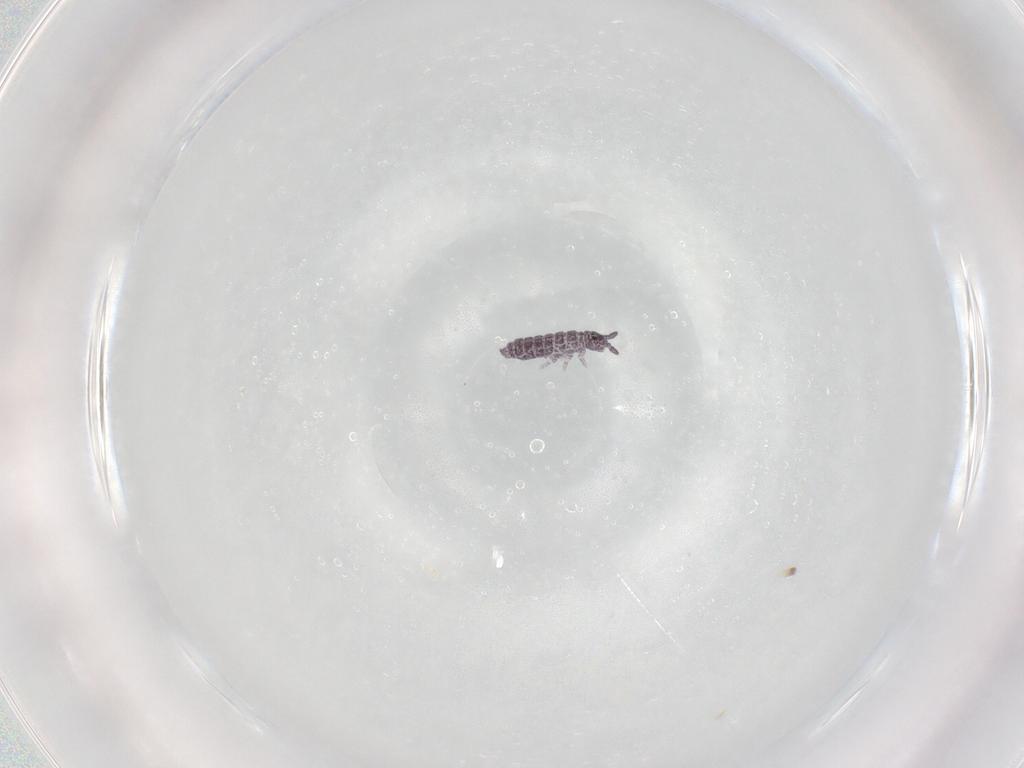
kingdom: Animalia
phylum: Arthropoda
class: Collembola
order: Poduromorpha
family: Hypogastruridae
